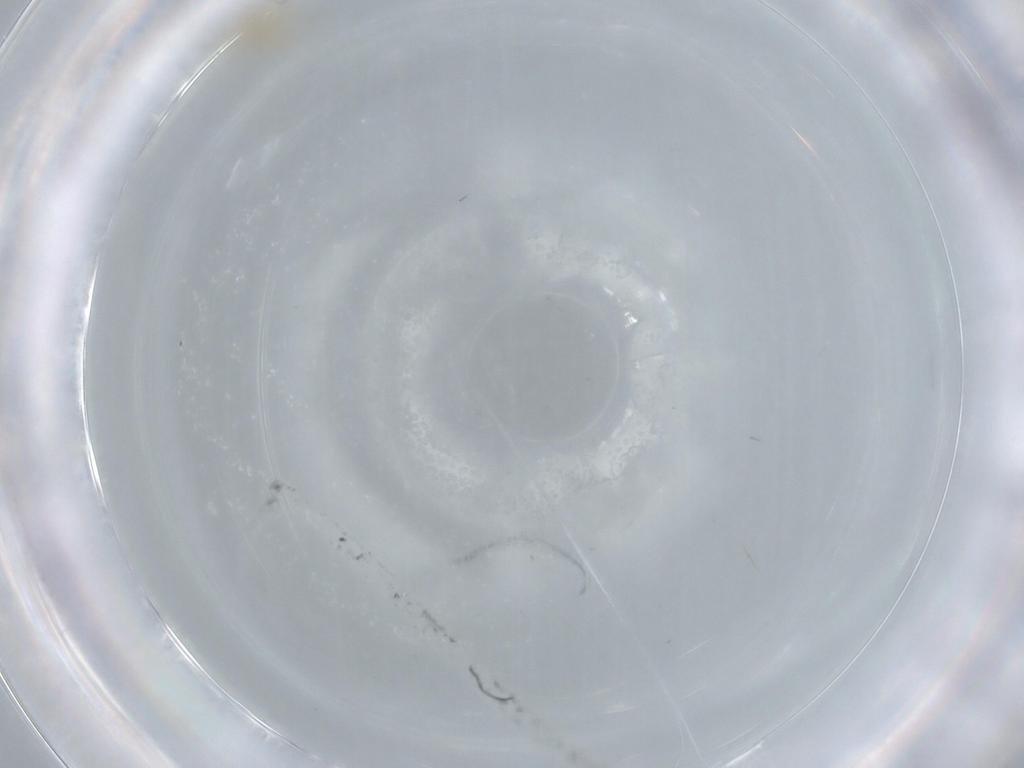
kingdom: Animalia
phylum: Arthropoda
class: Insecta
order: Diptera
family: Cecidomyiidae
